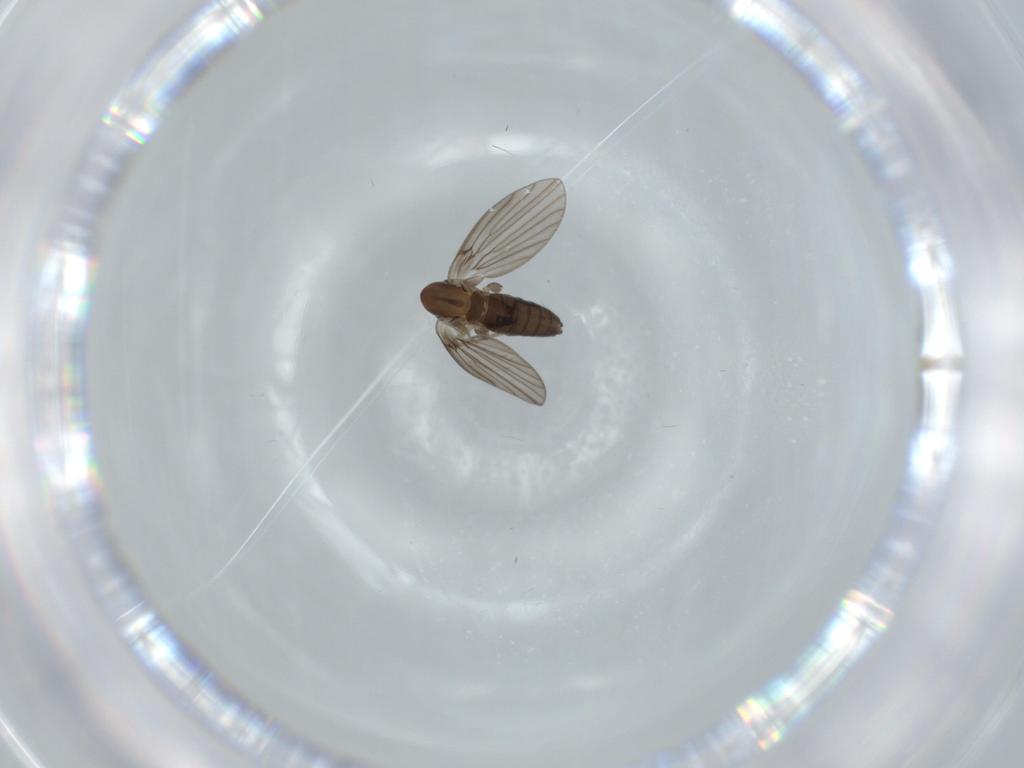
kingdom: Animalia
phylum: Arthropoda
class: Insecta
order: Diptera
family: Psychodidae
